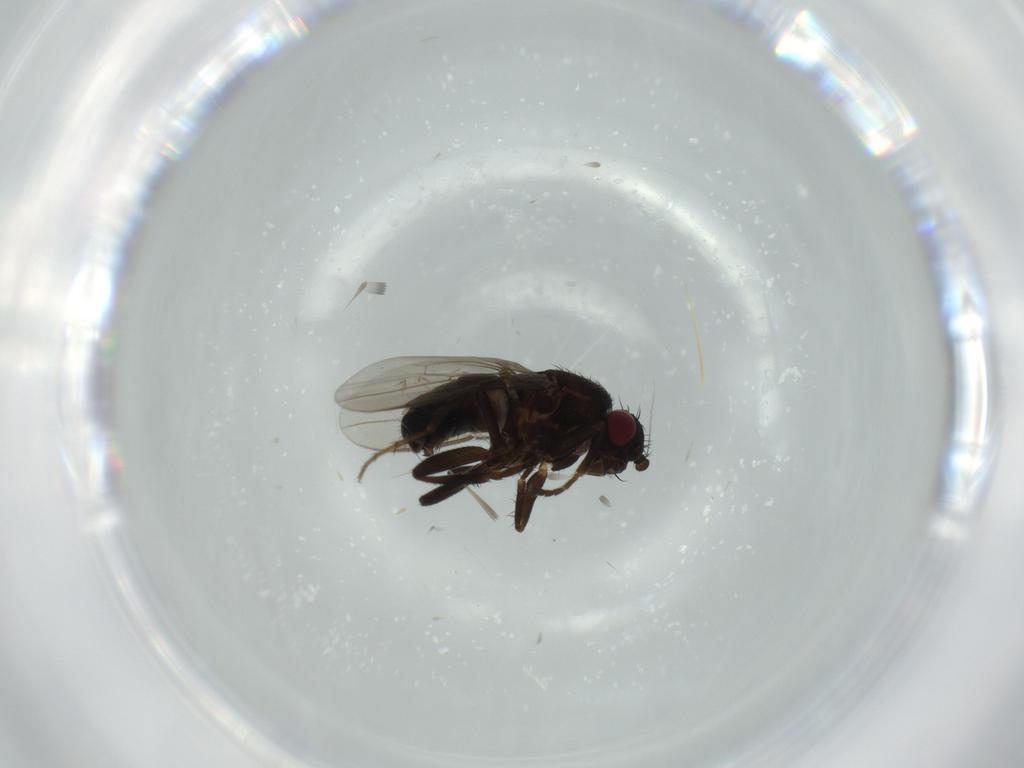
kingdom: Animalia
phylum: Arthropoda
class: Insecta
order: Diptera
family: Sphaeroceridae
